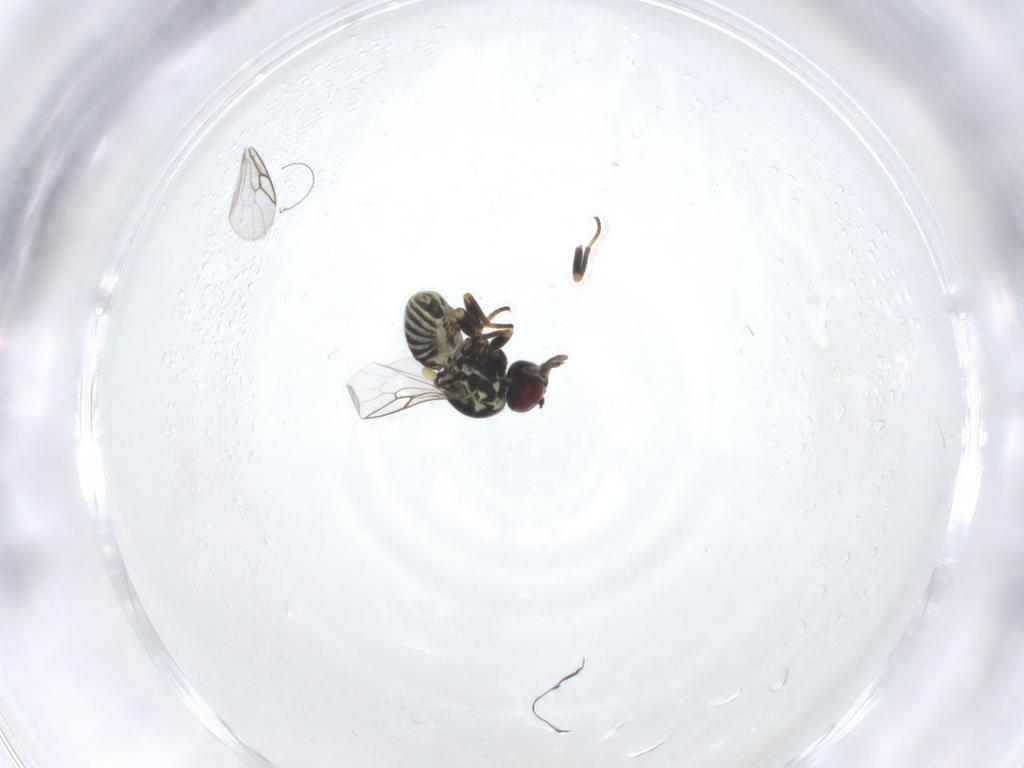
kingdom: Animalia
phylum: Arthropoda
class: Insecta
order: Diptera
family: Mythicomyiidae
